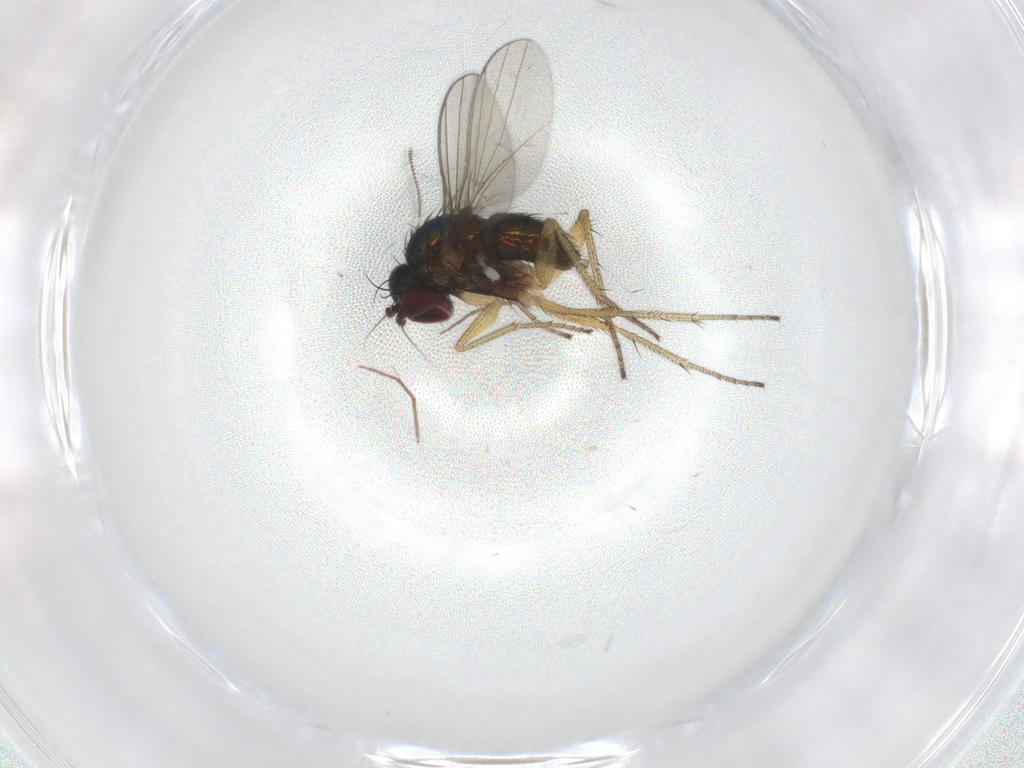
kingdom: Animalia
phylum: Arthropoda
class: Insecta
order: Diptera
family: Chironomidae
